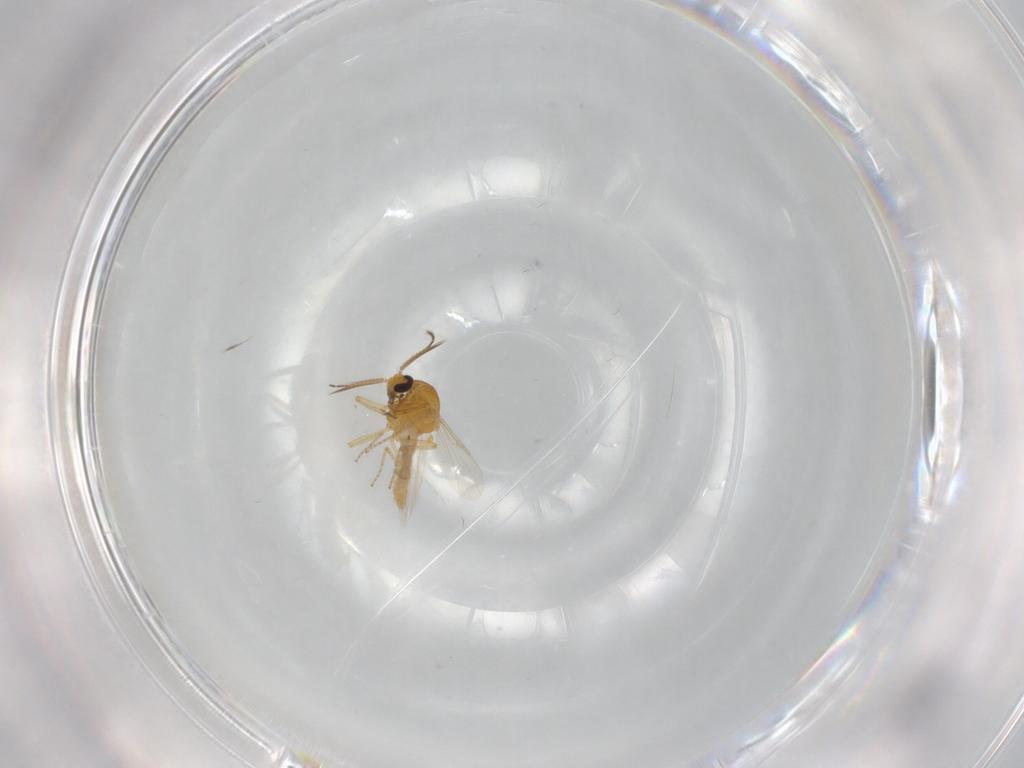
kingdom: Animalia
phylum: Arthropoda
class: Insecta
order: Diptera
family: Ceratopogonidae
